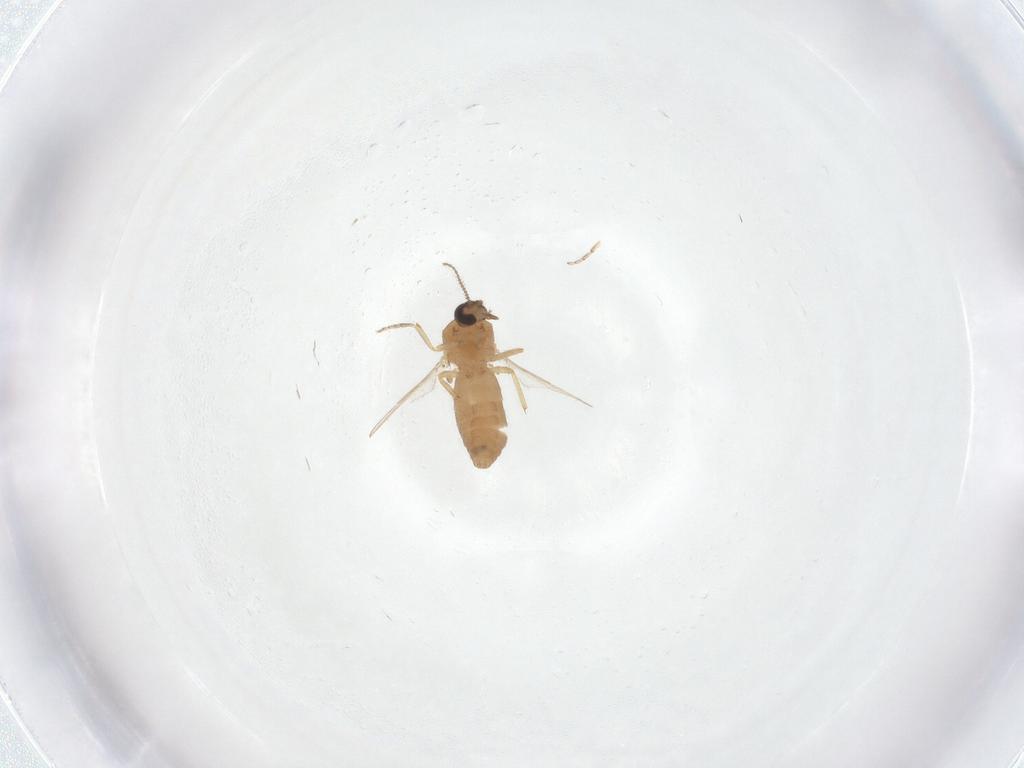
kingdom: Animalia
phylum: Arthropoda
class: Insecta
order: Diptera
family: Ceratopogonidae
